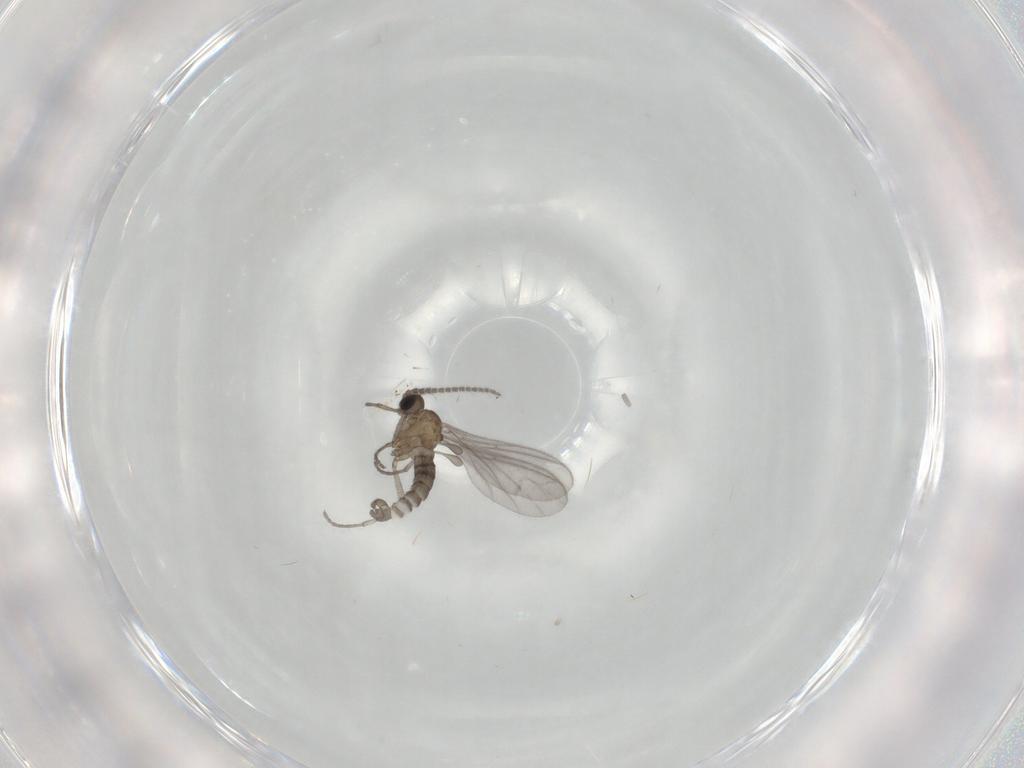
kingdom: Animalia
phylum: Arthropoda
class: Insecta
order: Diptera
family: Sciaridae
